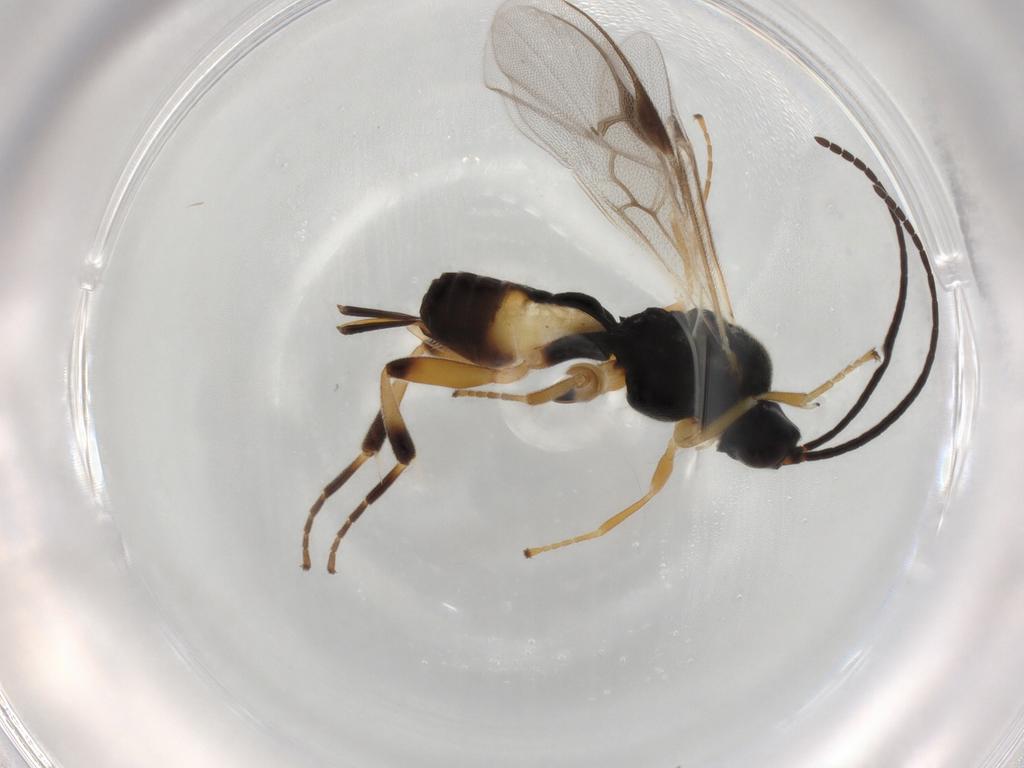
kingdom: Animalia
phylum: Arthropoda
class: Insecta
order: Hymenoptera
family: Braconidae
